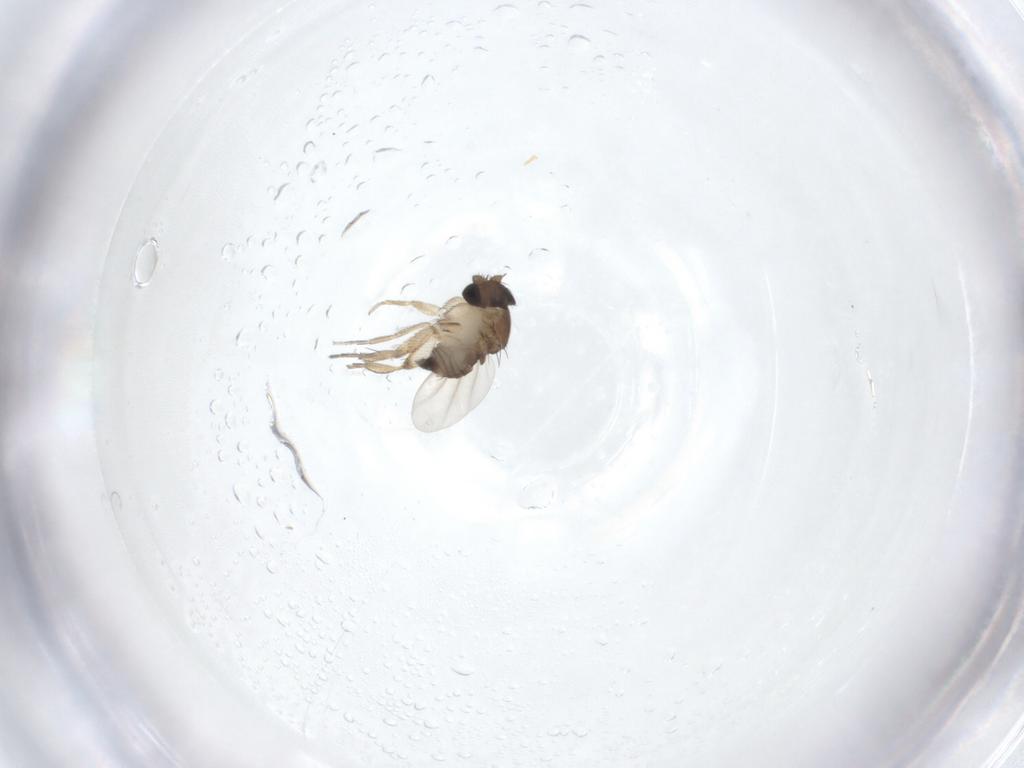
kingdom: Animalia
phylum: Arthropoda
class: Insecta
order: Diptera
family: Phoridae
